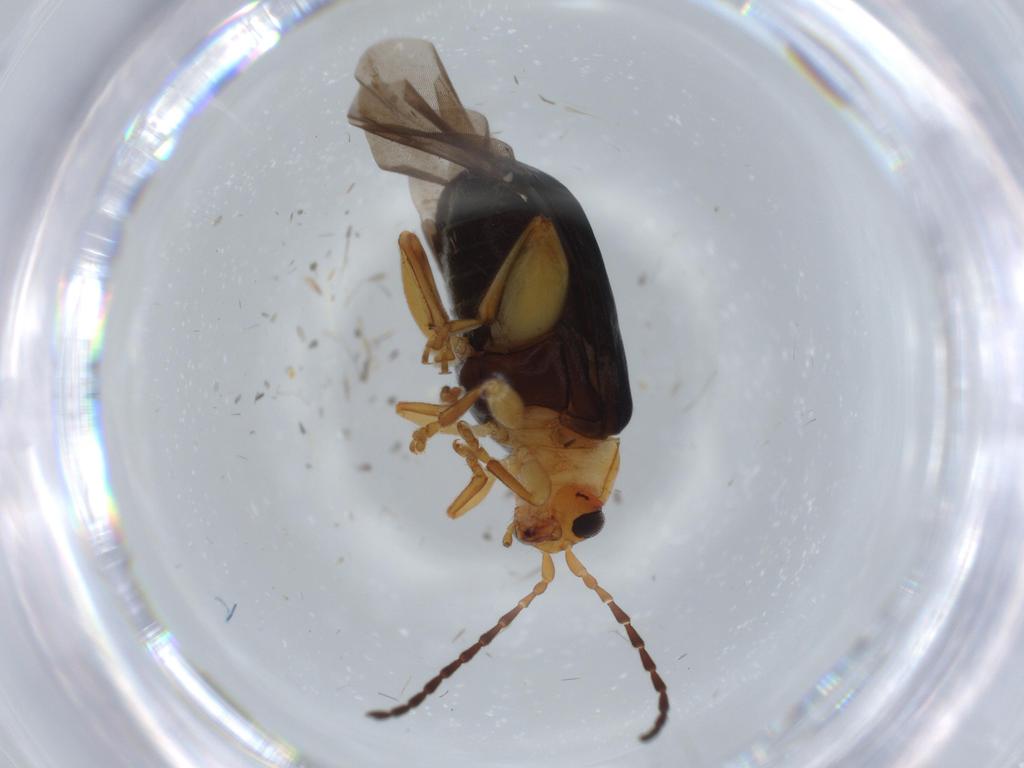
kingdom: Animalia
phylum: Arthropoda
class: Insecta
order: Coleoptera
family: Chrysomelidae
